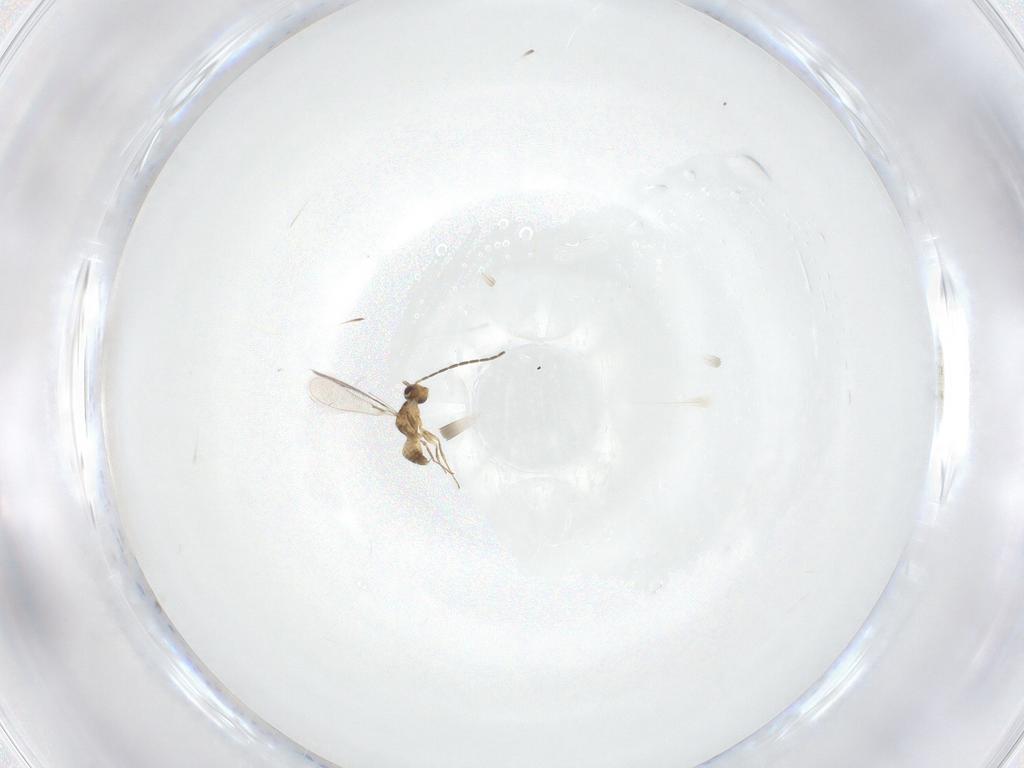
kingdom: Animalia
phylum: Arthropoda
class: Insecta
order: Hymenoptera
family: Mymaridae
